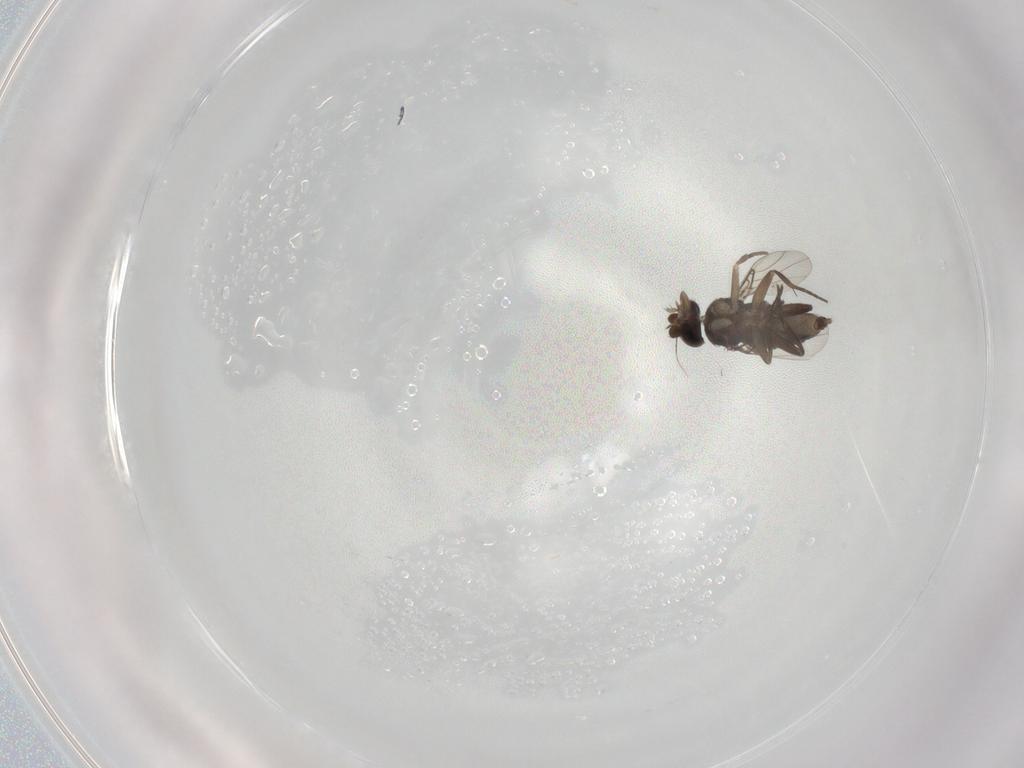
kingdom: Animalia
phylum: Arthropoda
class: Insecta
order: Diptera
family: Phoridae
